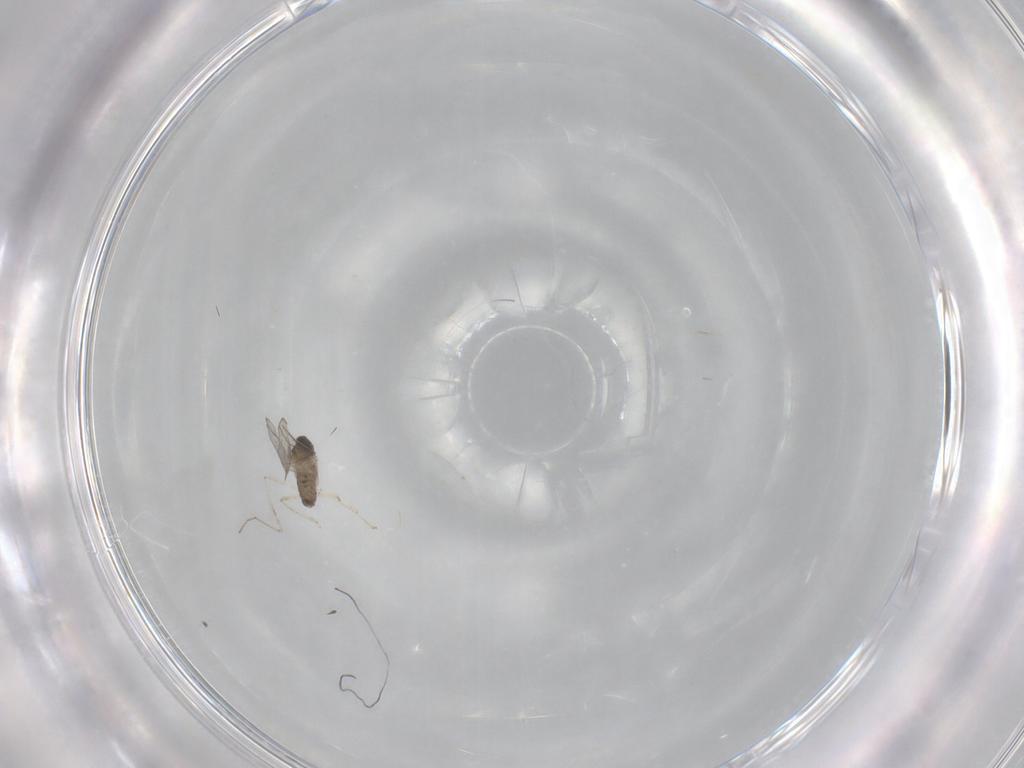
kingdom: Animalia
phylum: Arthropoda
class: Insecta
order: Diptera
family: Cecidomyiidae
